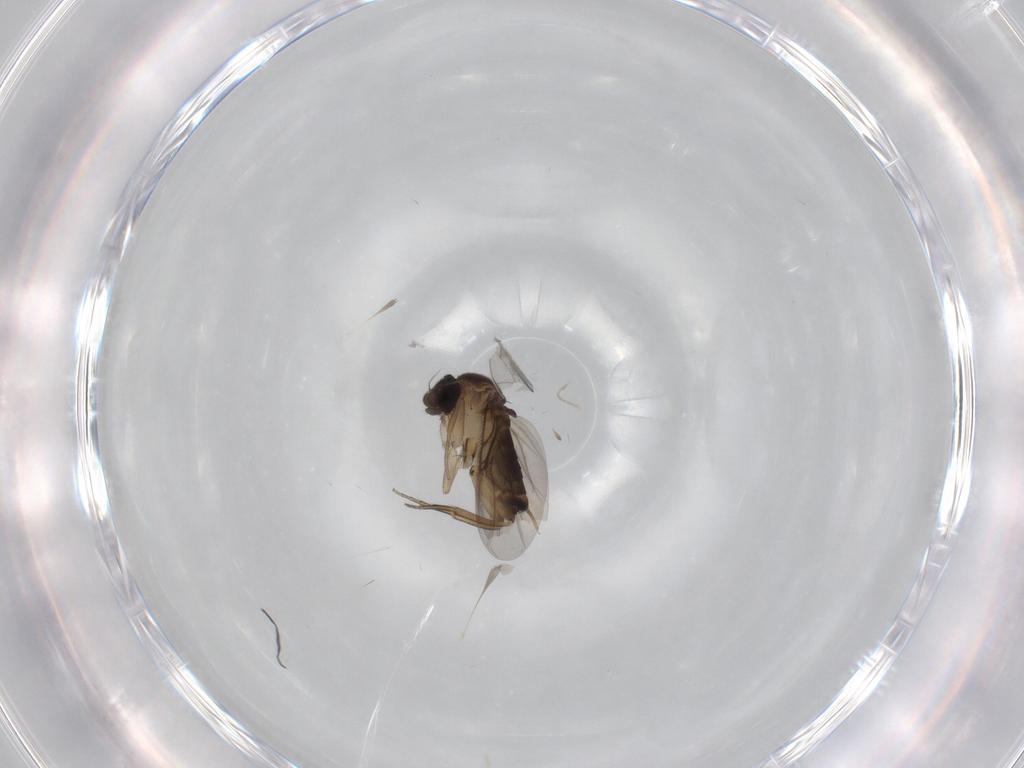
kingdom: Animalia
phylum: Arthropoda
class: Insecta
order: Diptera
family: Phoridae
